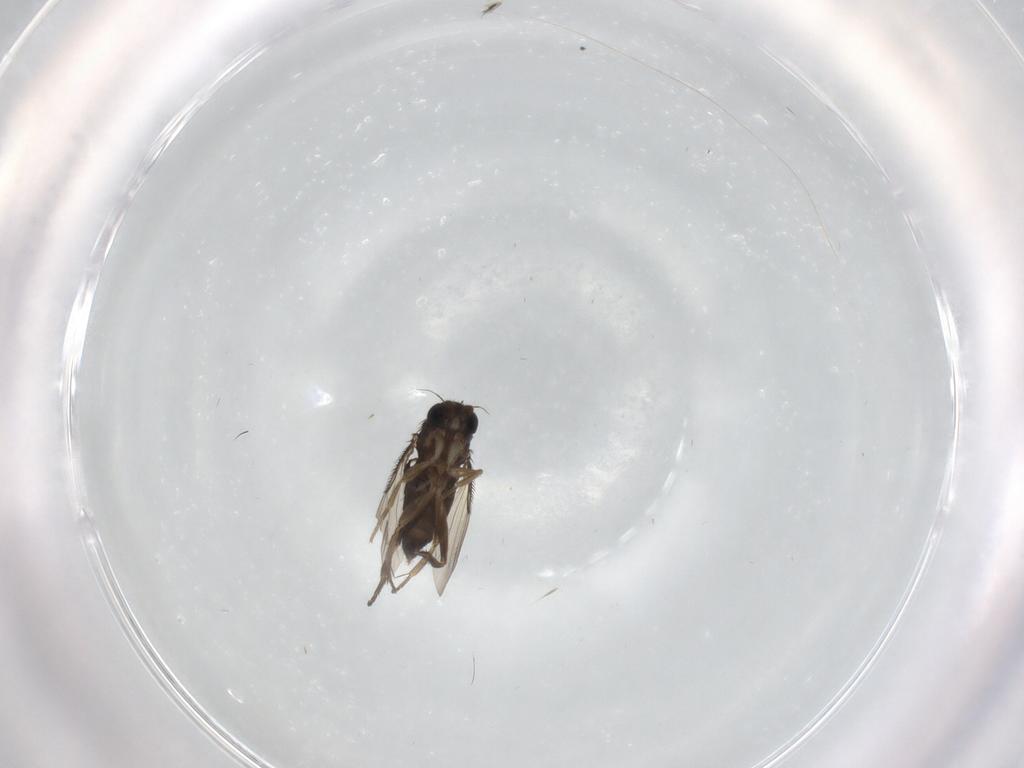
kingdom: Animalia
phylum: Arthropoda
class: Insecta
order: Diptera
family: Phoridae
